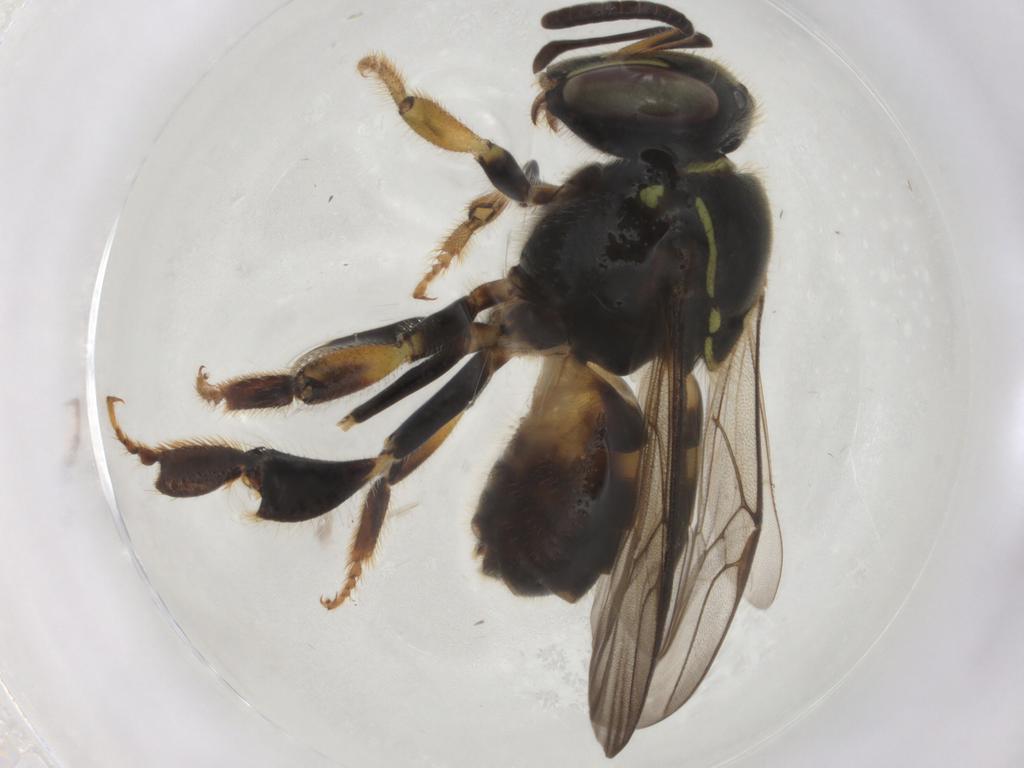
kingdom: Animalia
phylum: Arthropoda
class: Insecta
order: Hymenoptera
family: Apidae
